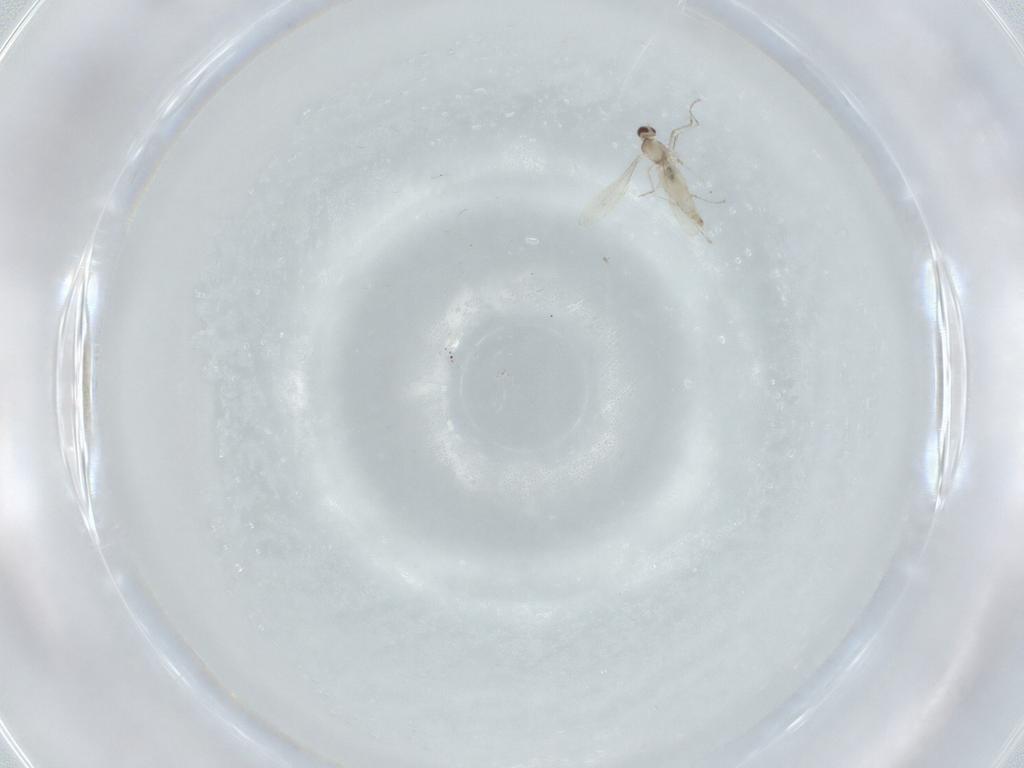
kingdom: Animalia
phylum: Arthropoda
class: Insecta
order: Diptera
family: Cecidomyiidae
